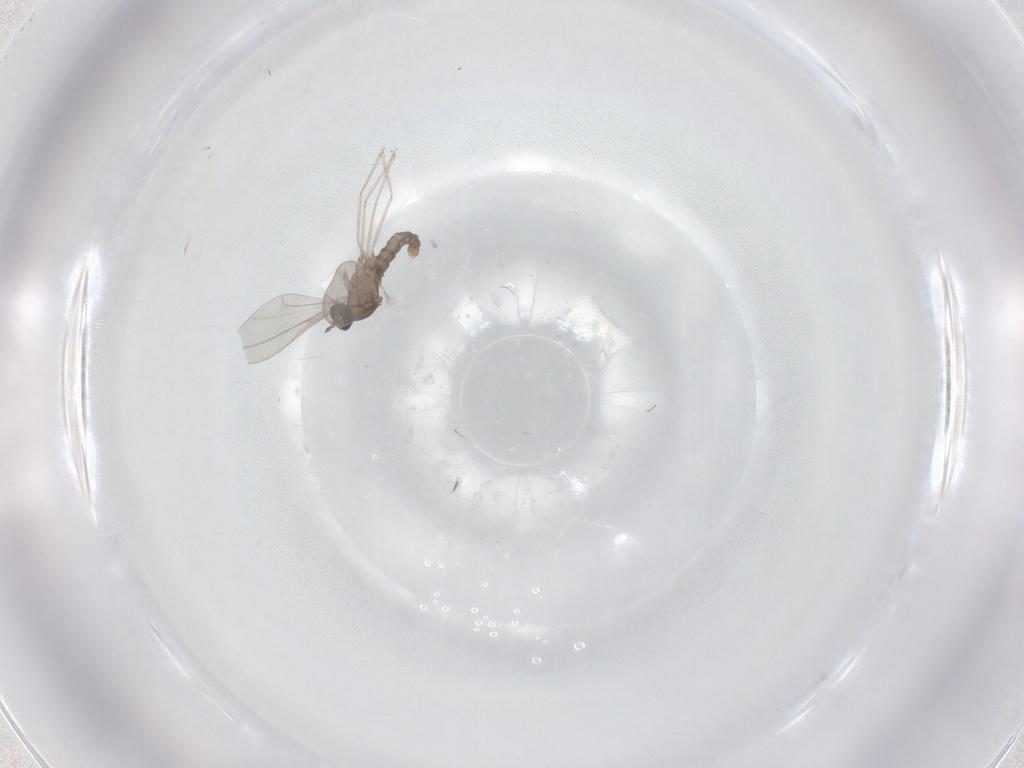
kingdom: Animalia
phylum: Arthropoda
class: Insecta
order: Diptera
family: Cecidomyiidae
